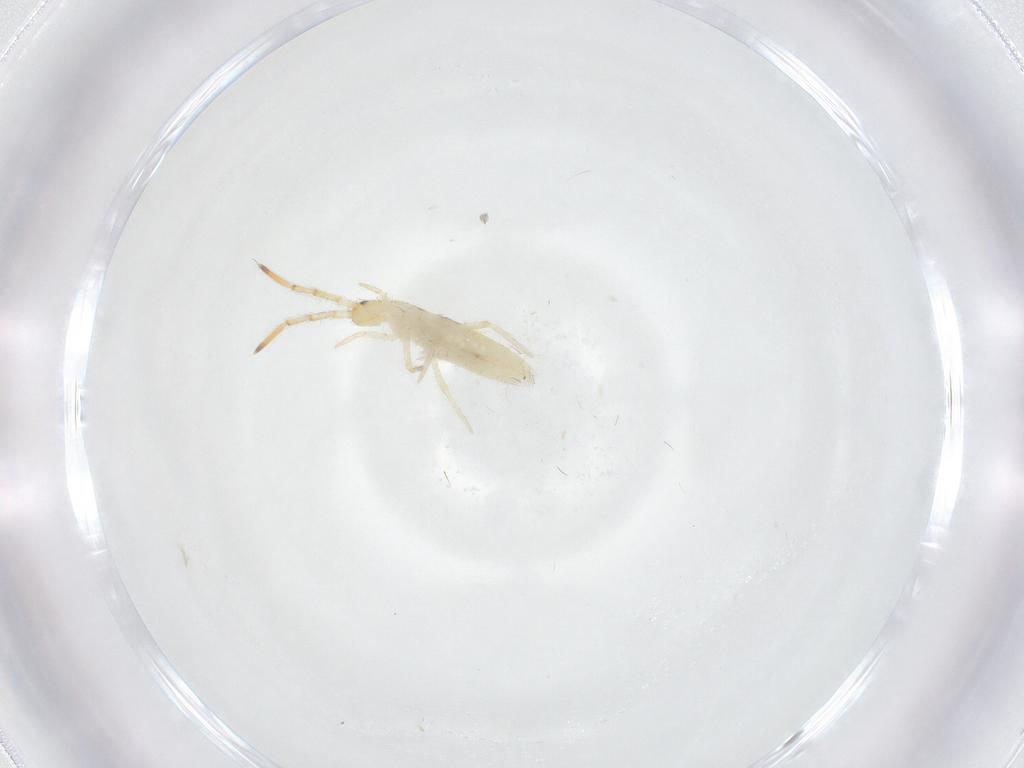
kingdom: Animalia
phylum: Arthropoda
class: Collembola
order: Entomobryomorpha
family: Entomobryidae
